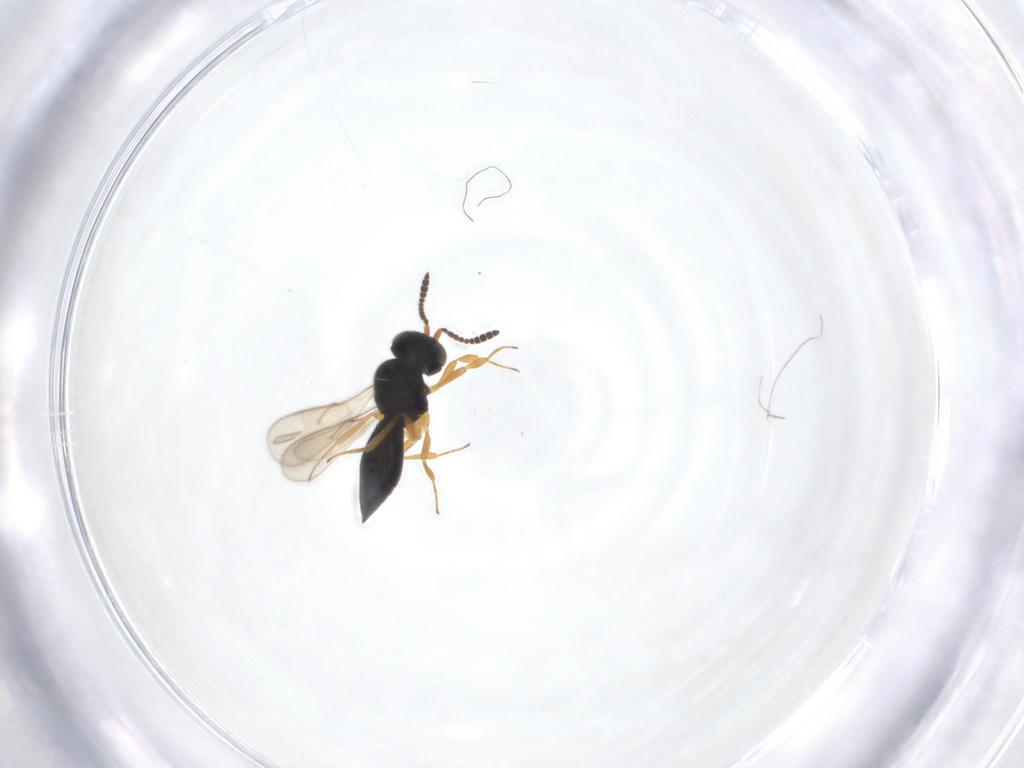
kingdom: Animalia
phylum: Arthropoda
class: Insecta
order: Hymenoptera
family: Scelionidae
